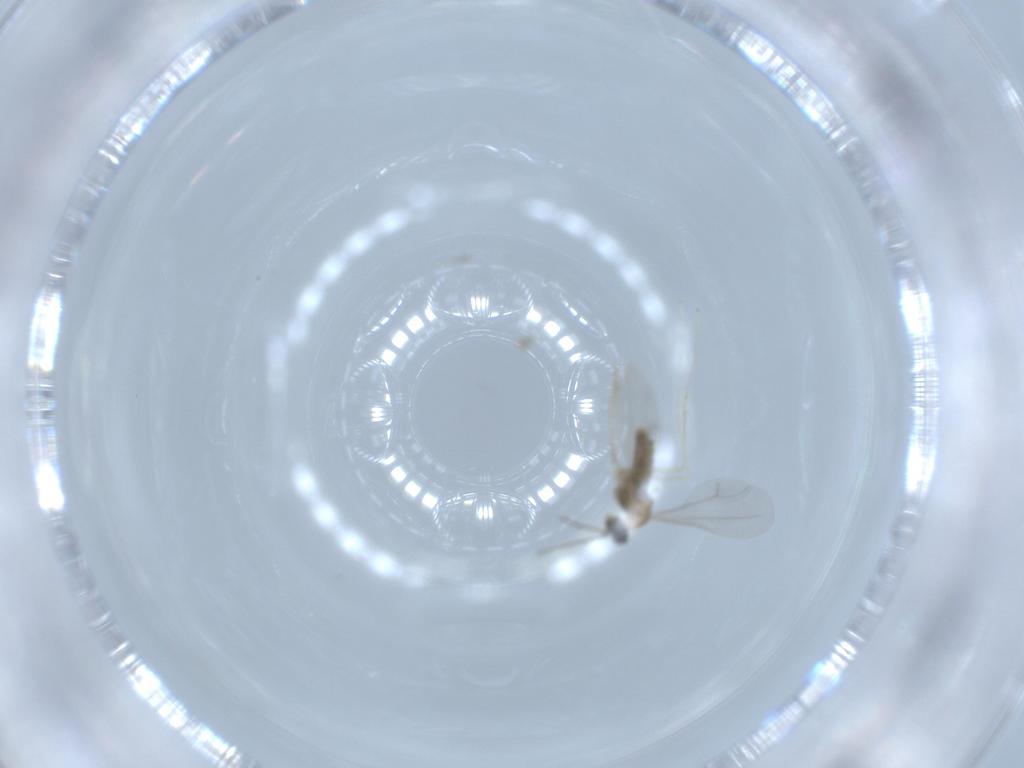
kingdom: Animalia
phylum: Arthropoda
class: Insecta
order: Diptera
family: Cecidomyiidae
